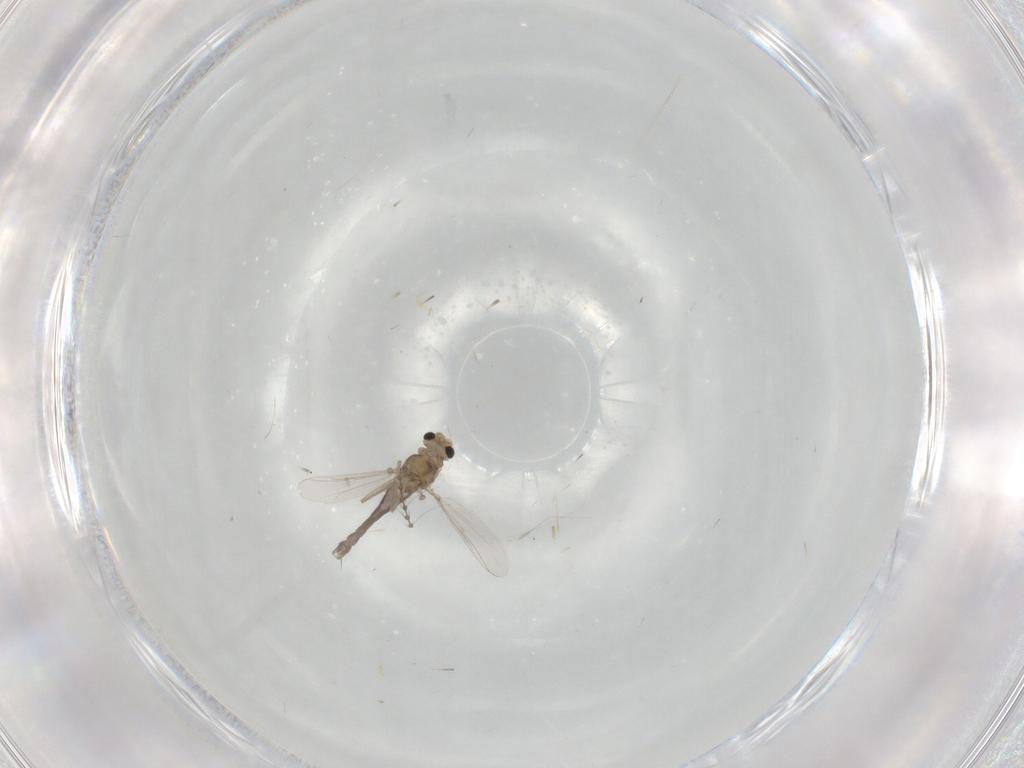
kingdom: Animalia
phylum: Arthropoda
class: Insecta
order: Diptera
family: Chironomidae
